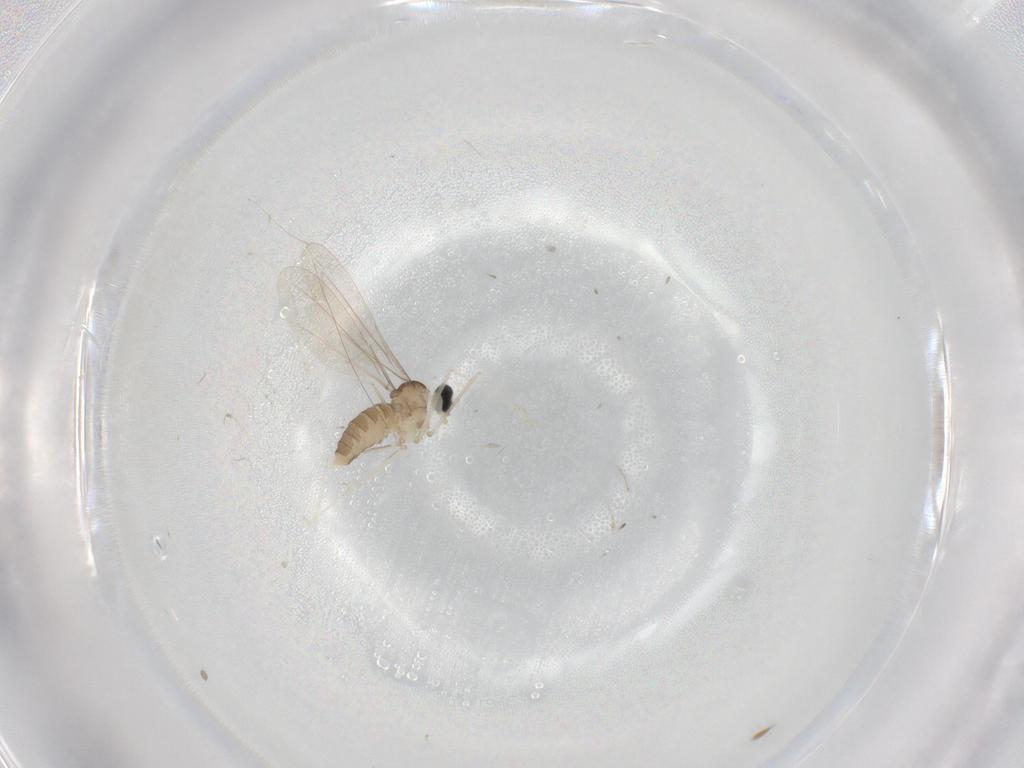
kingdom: Animalia
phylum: Arthropoda
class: Insecta
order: Diptera
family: Cecidomyiidae
